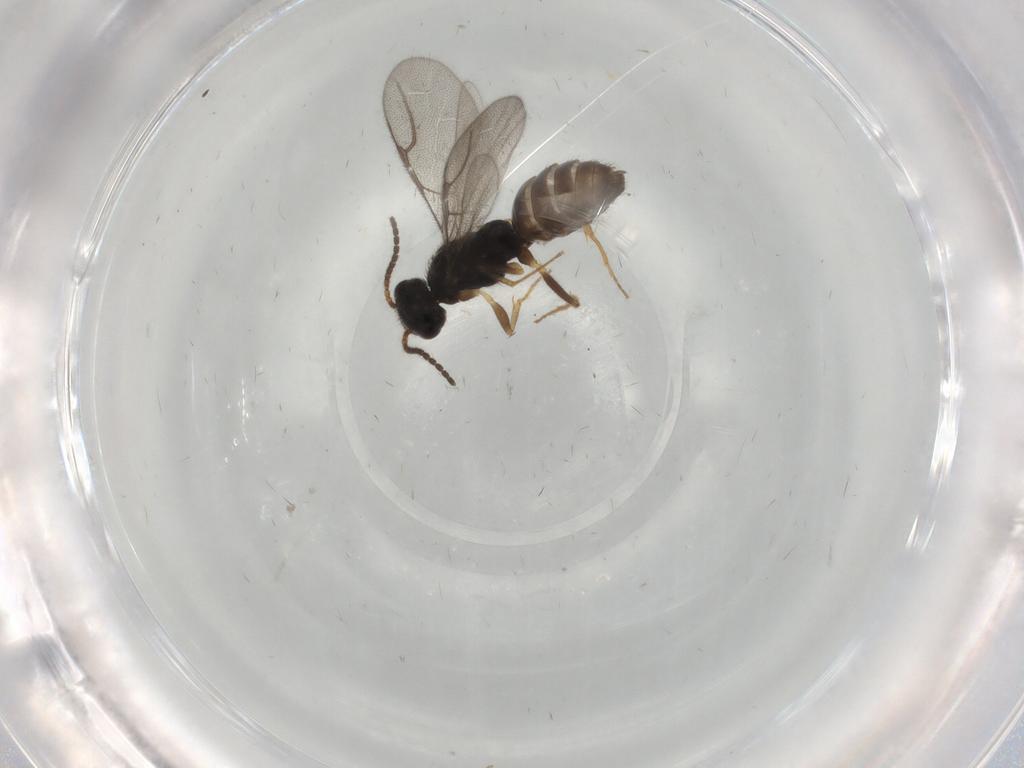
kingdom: Animalia
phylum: Arthropoda
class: Insecta
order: Hymenoptera
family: Bethylidae
